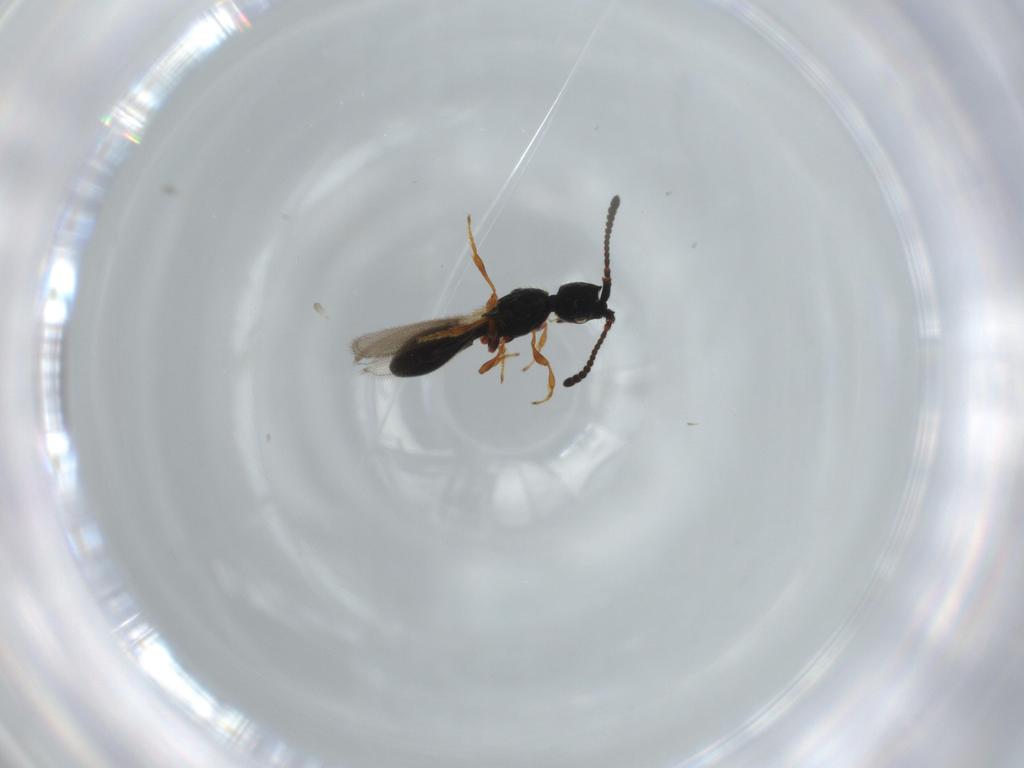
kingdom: Animalia
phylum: Arthropoda
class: Insecta
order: Hymenoptera
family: Diapriidae
